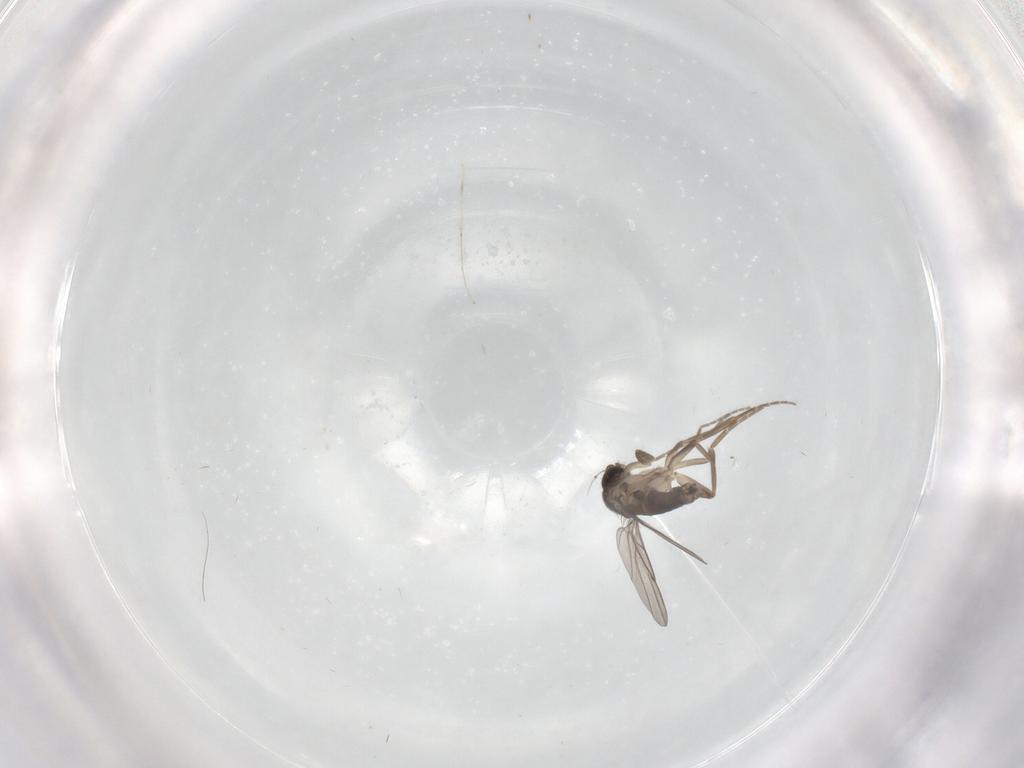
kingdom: Animalia
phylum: Arthropoda
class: Insecta
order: Diptera
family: Phoridae
